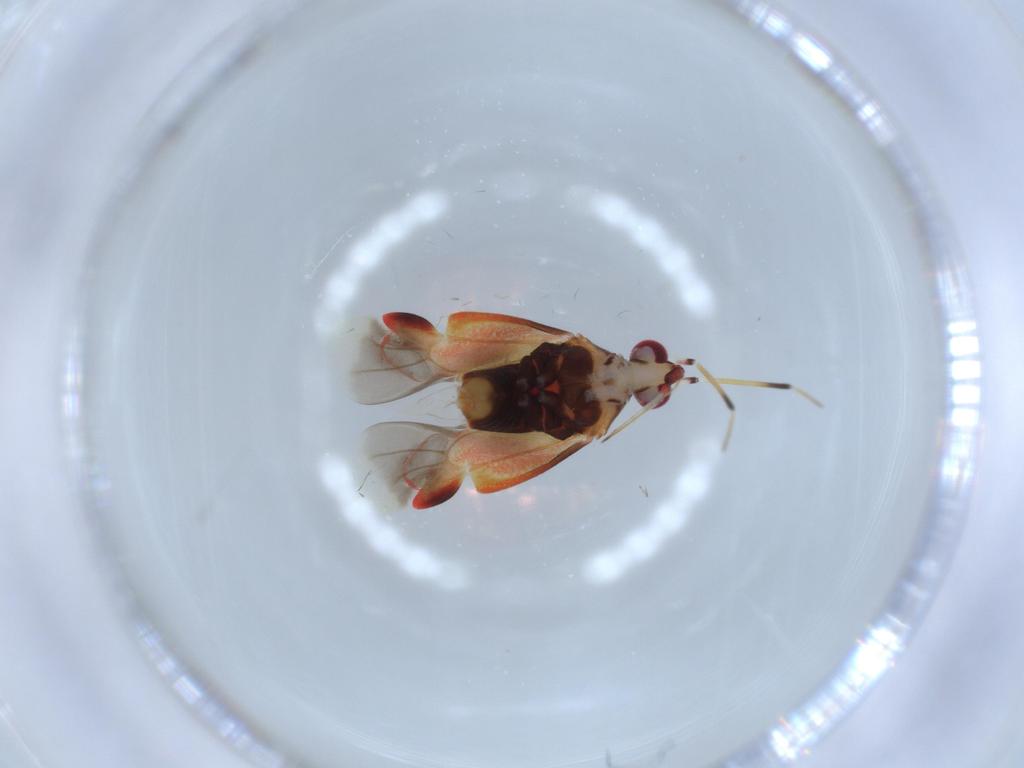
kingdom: Animalia
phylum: Arthropoda
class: Insecta
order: Hemiptera
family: Miridae
